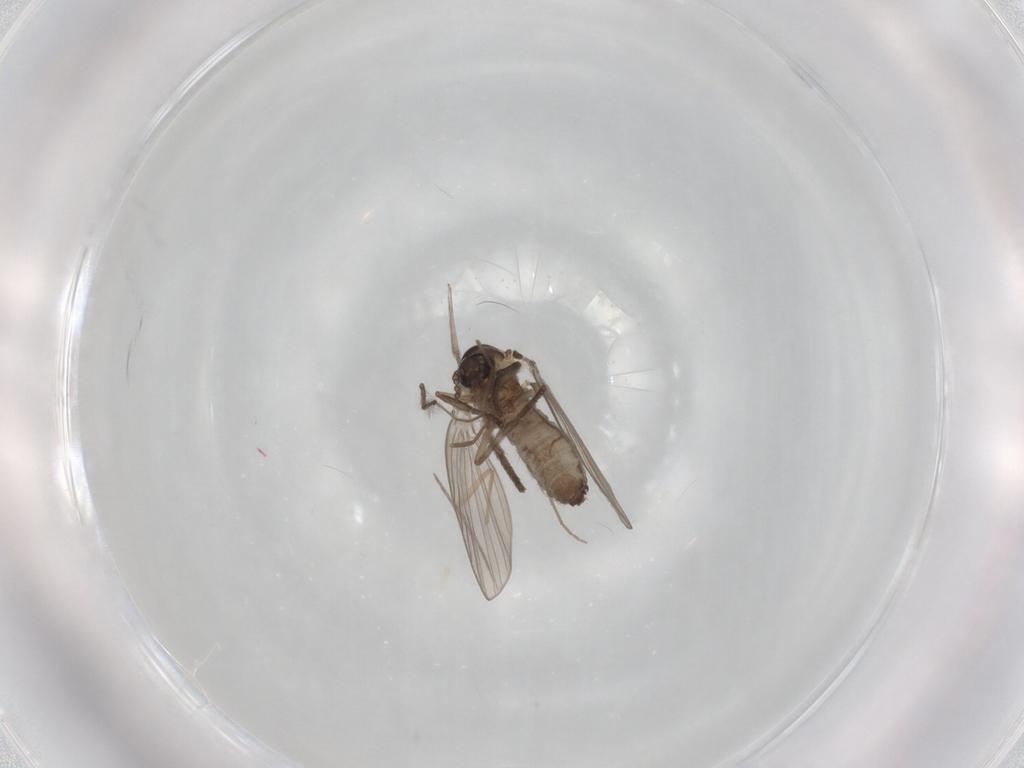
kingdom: Animalia
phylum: Arthropoda
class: Insecta
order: Diptera
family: Psychodidae
